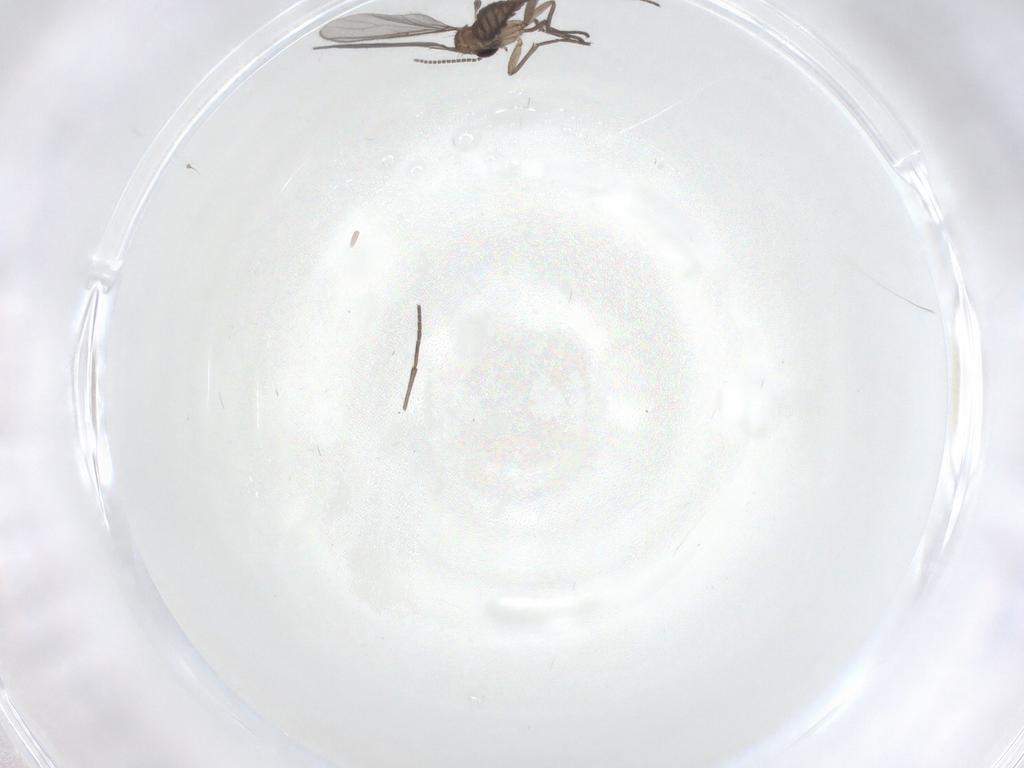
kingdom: Animalia
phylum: Arthropoda
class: Insecta
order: Diptera
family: Sciaridae
